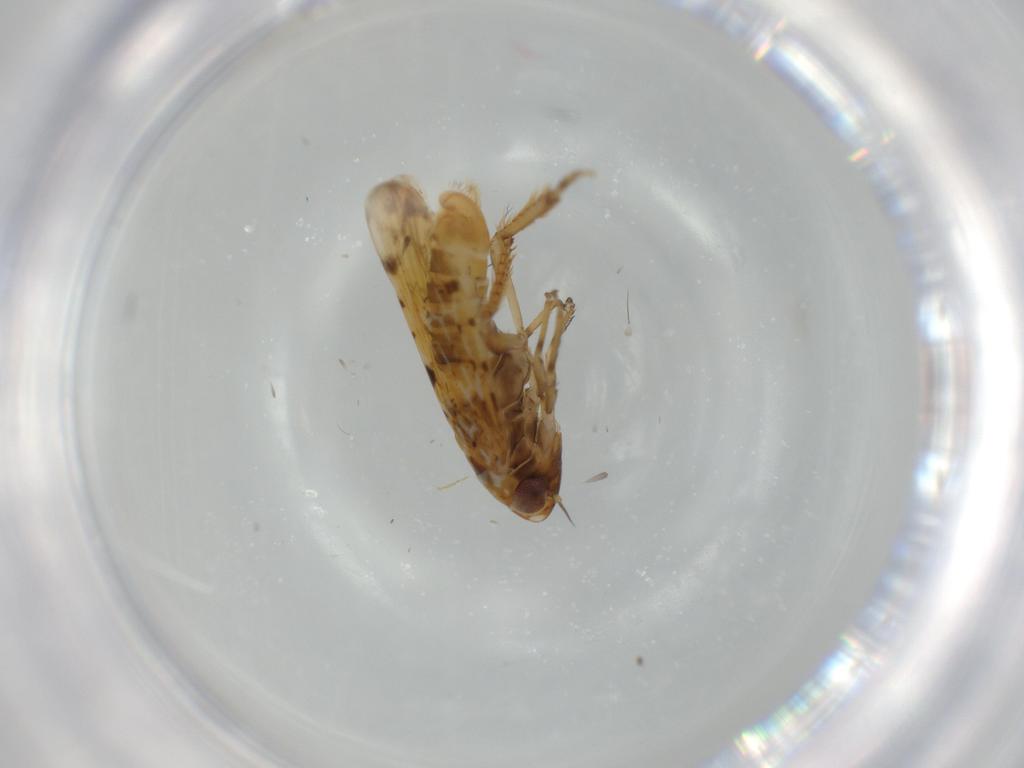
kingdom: Animalia
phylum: Arthropoda
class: Insecta
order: Hemiptera
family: Cicadellidae
